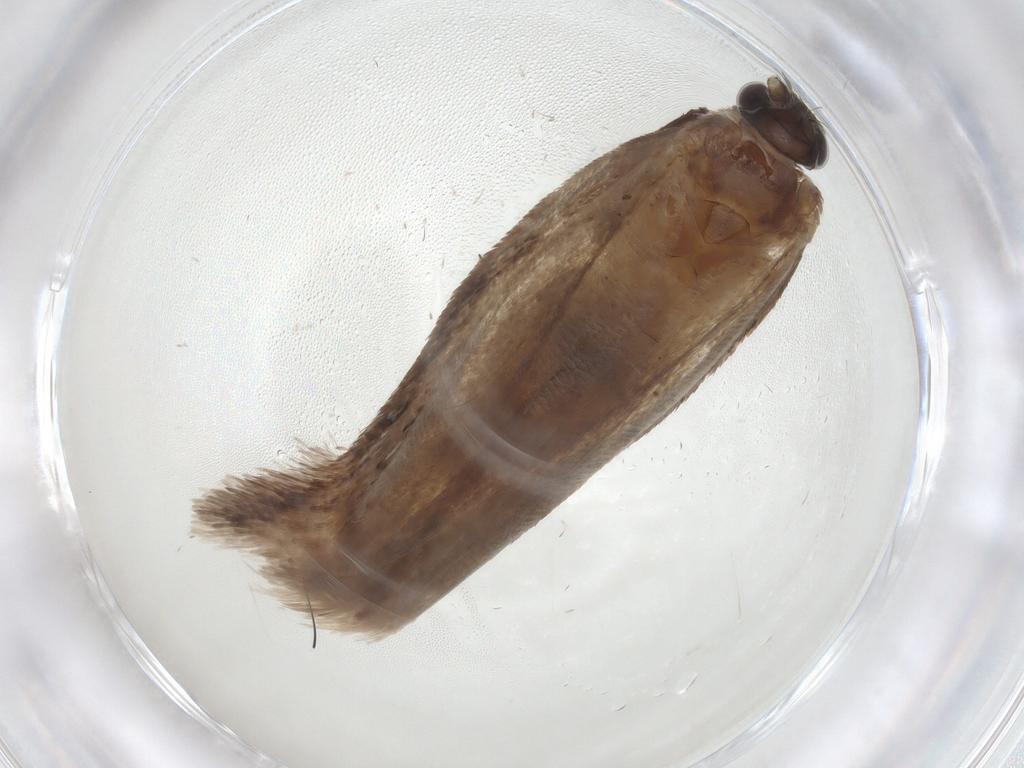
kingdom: Animalia
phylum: Arthropoda
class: Insecta
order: Lepidoptera
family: Roeslerstammiidae
